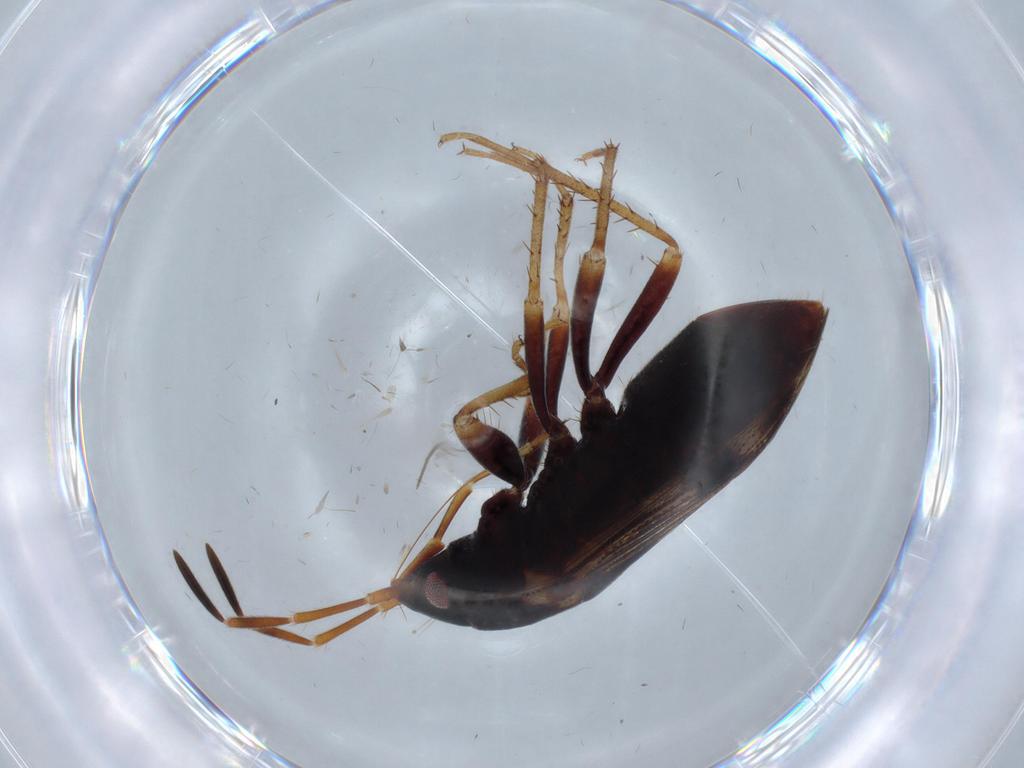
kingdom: Animalia
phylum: Arthropoda
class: Insecta
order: Hemiptera
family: Rhyparochromidae
